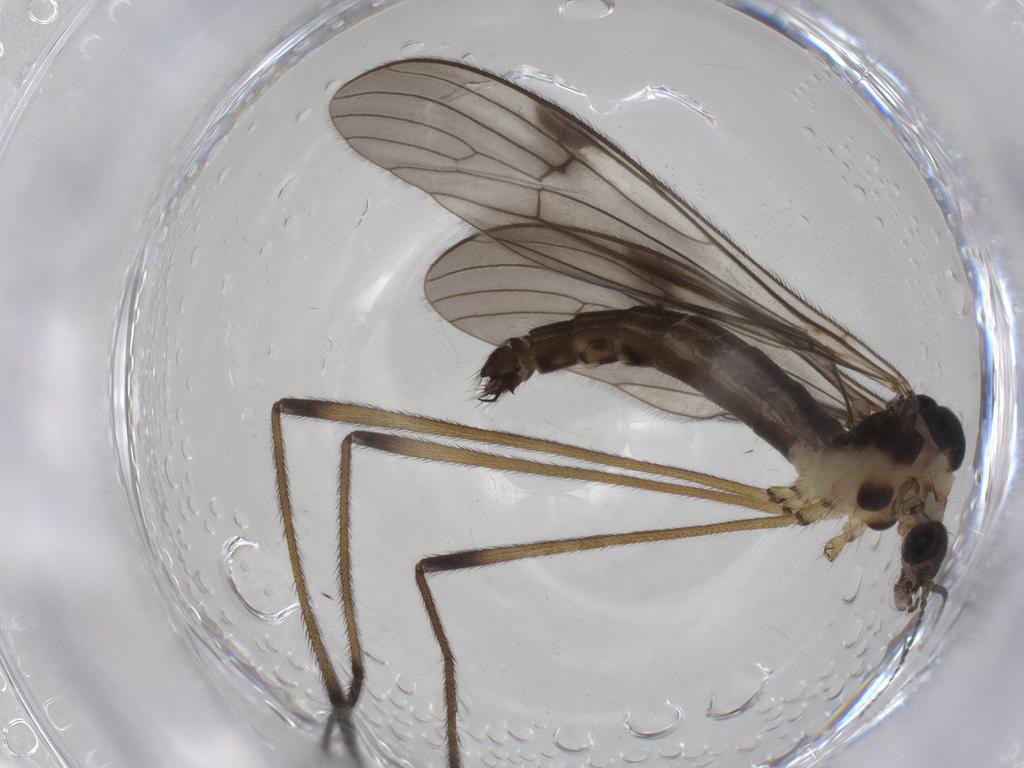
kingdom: Animalia
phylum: Arthropoda
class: Insecta
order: Diptera
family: Limoniidae
